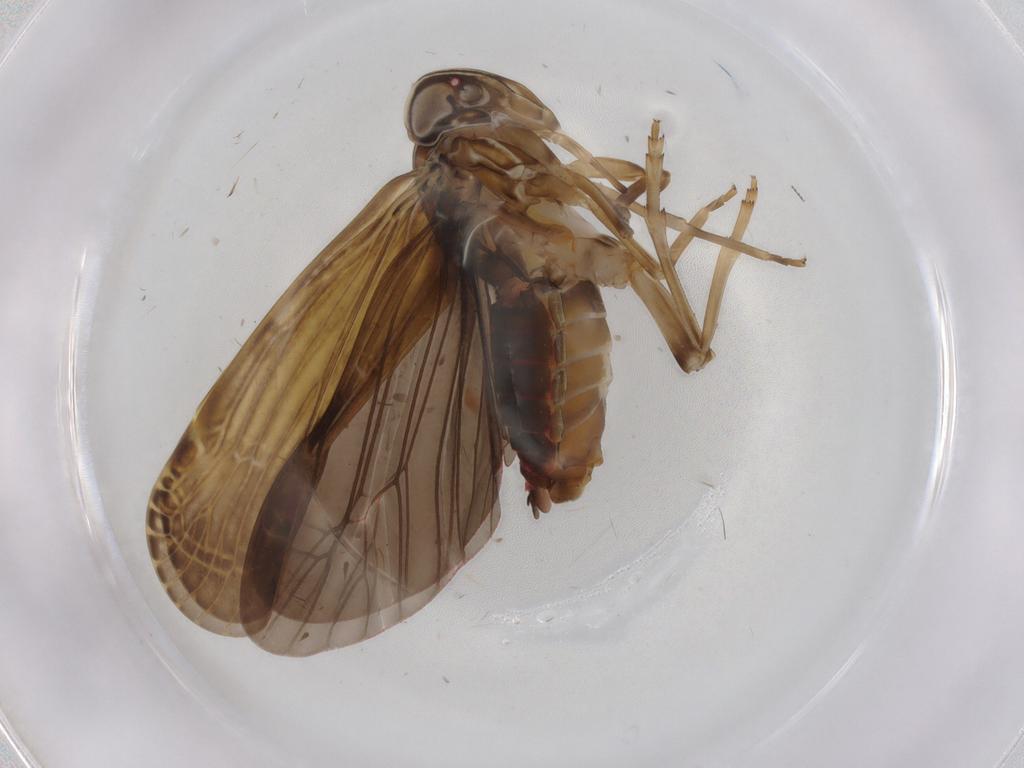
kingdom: Animalia
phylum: Arthropoda
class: Insecta
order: Hemiptera
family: Achilidae
